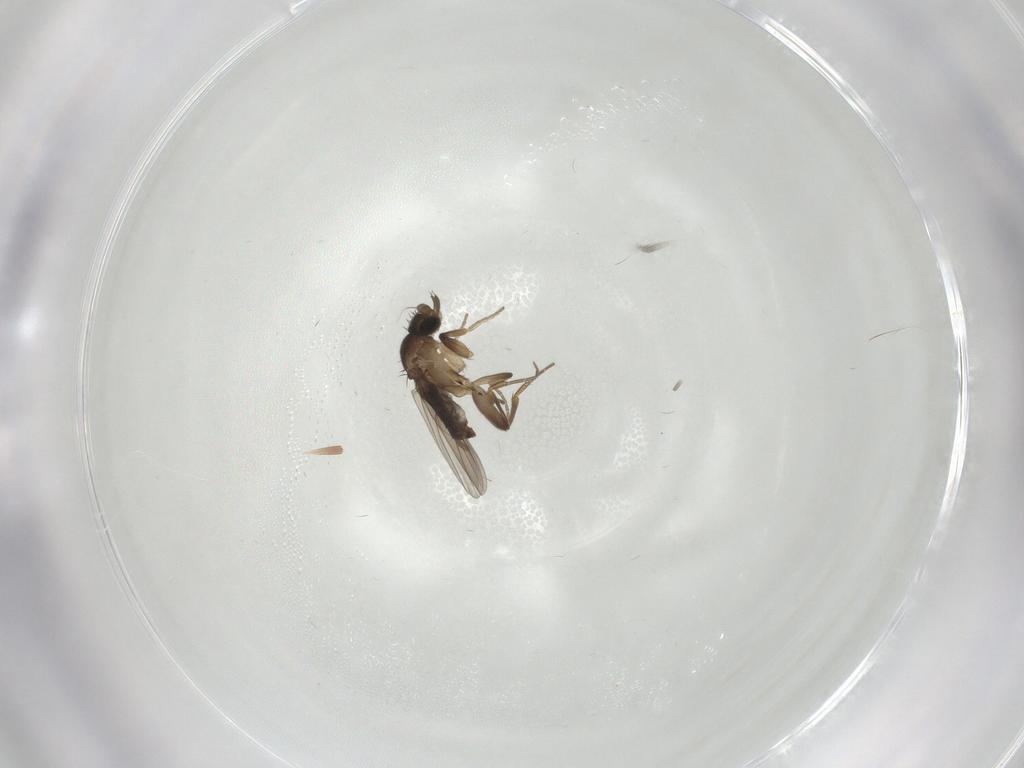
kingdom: Animalia
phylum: Arthropoda
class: Insecta
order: Diptera
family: Phoridae
